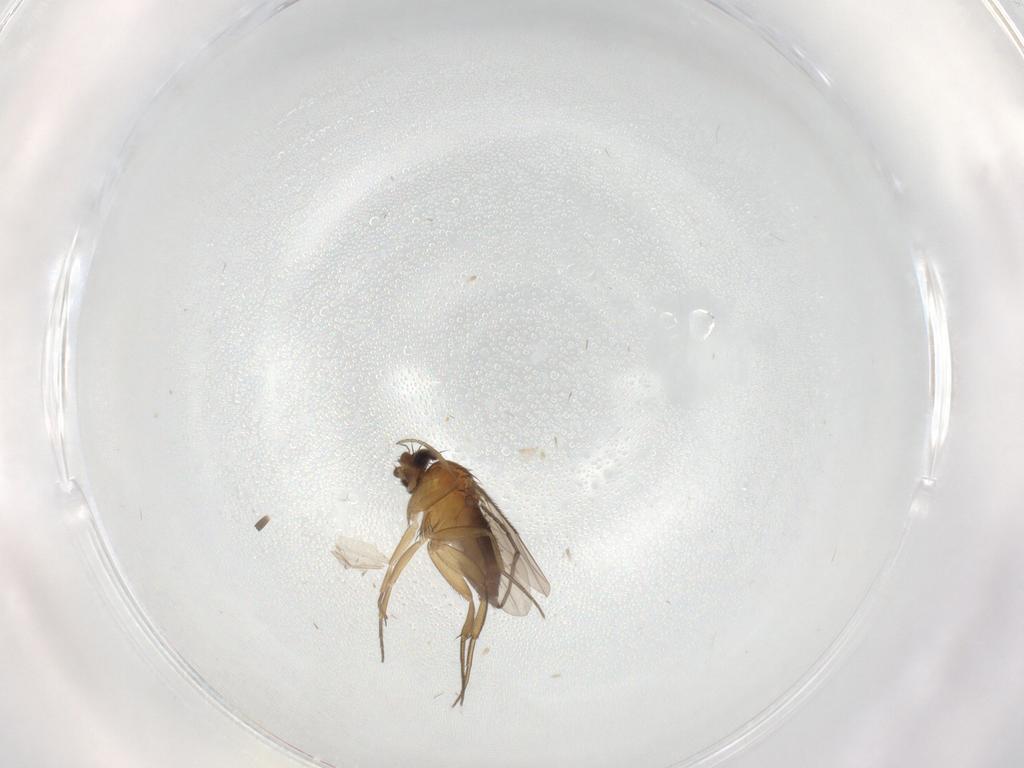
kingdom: Animalia
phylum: Arthropoda
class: Insecta
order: Diptera
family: Phoridae
